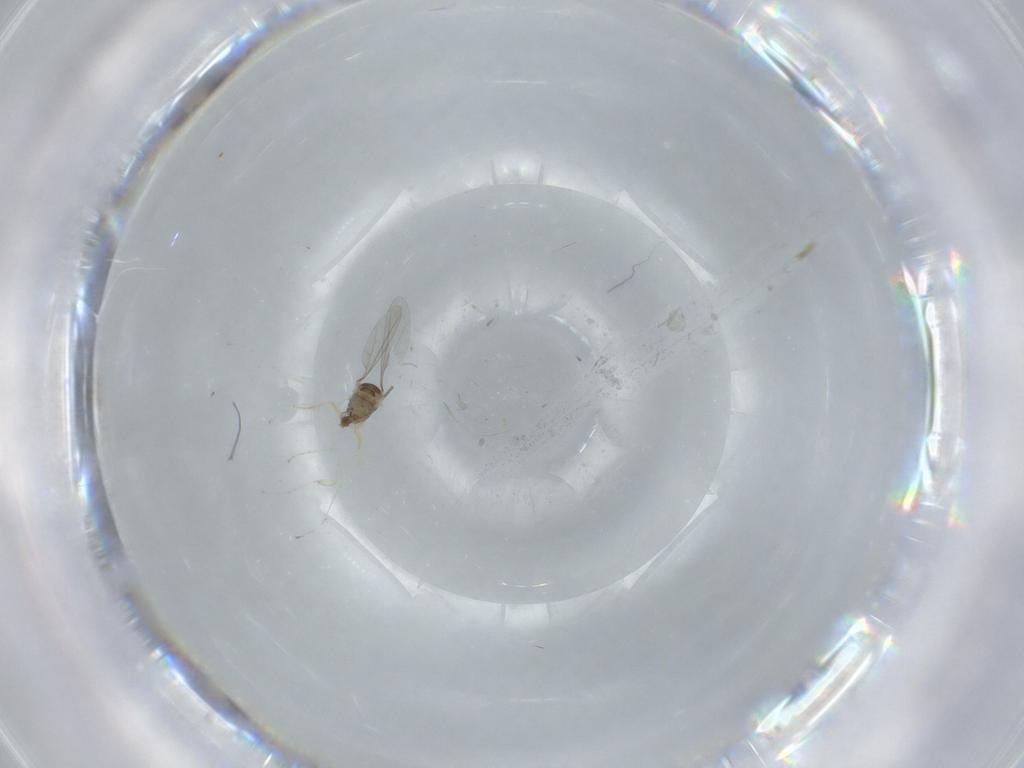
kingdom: Animalia
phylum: Arthropoda
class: Insecta
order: Diptera
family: Cecidomyiidae
